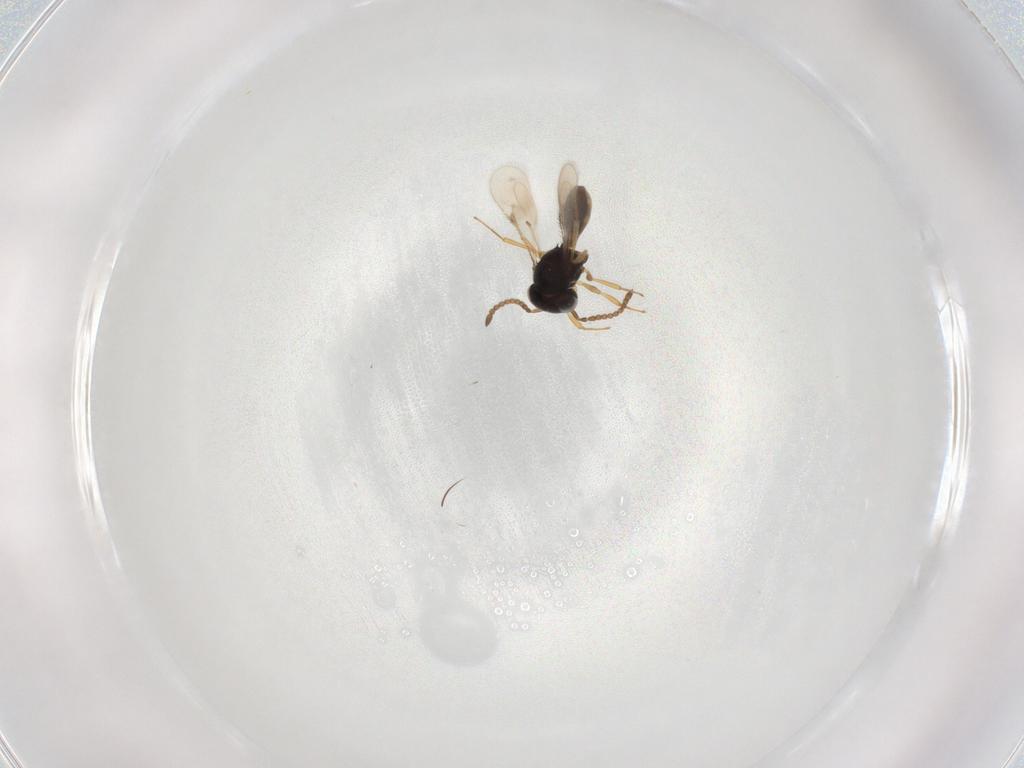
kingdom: Animalia
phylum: Arthropoda
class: Insecta
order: Hymenoptera
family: Scelionidae
